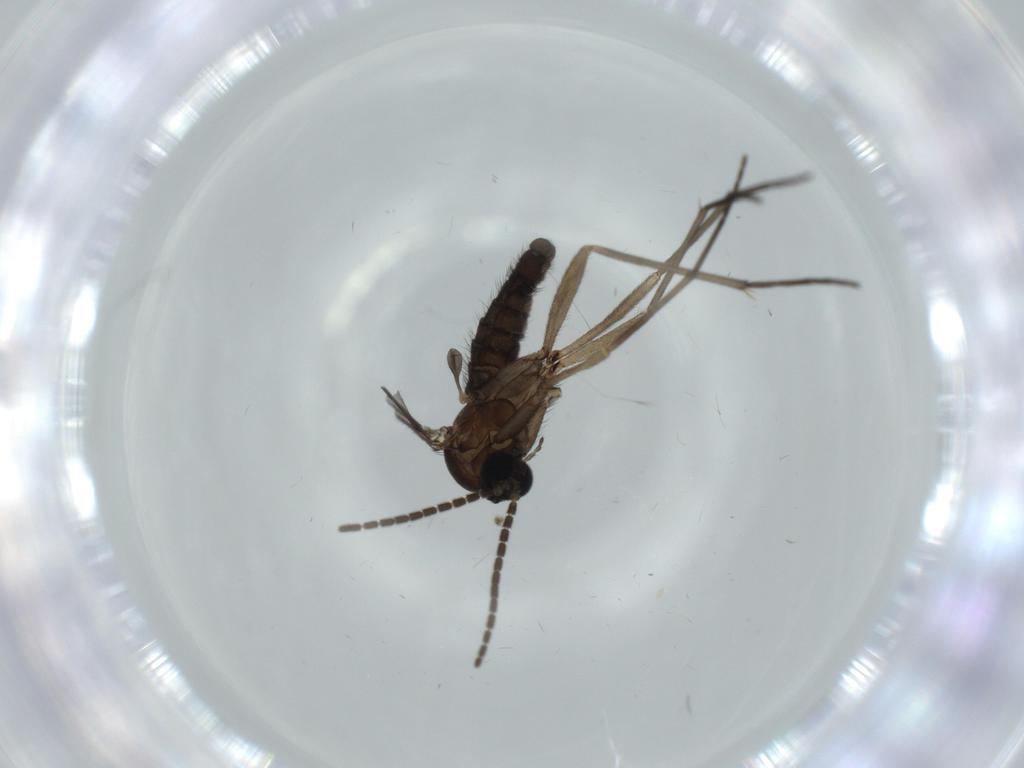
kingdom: Animalia
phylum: Arthropoda
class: Insecta
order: Diptera
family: Sciaridae
